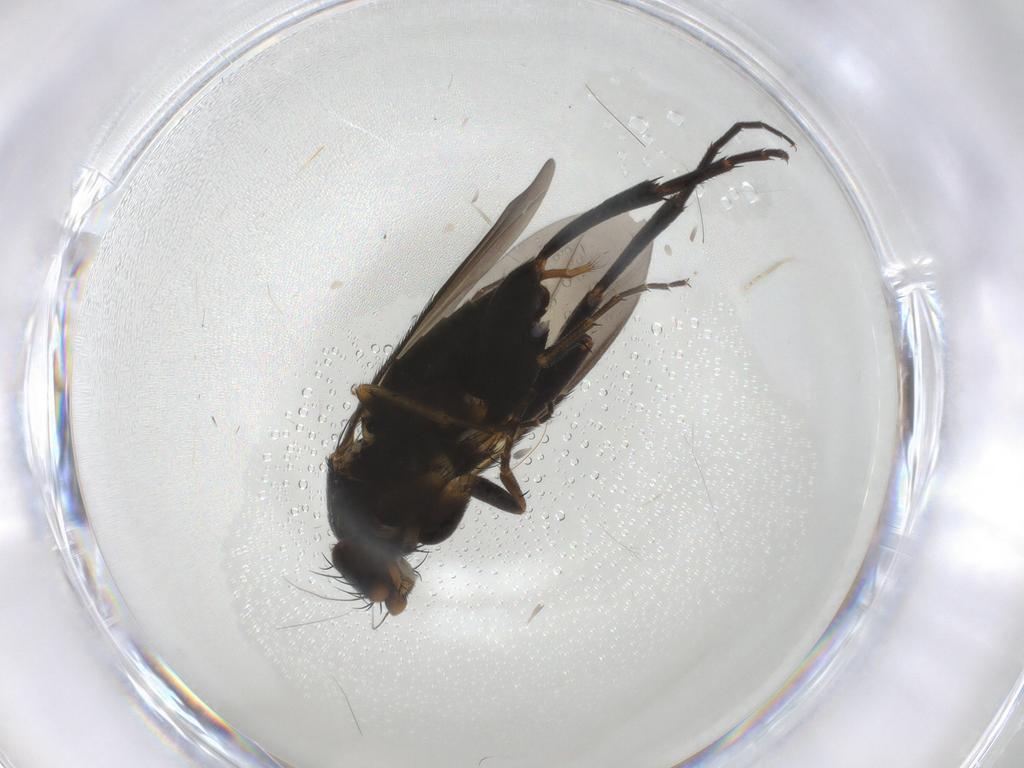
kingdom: Animalia
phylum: Arthropoda
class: Insecta
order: Diptera
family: Phoridae
